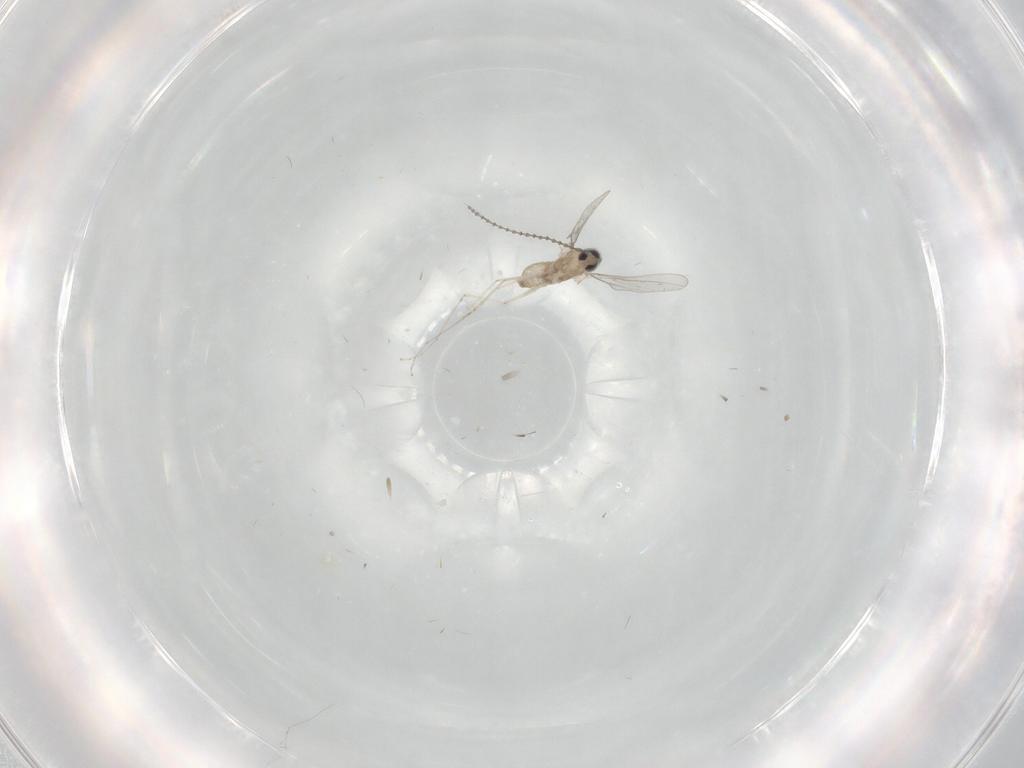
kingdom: Animalia
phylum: Arthropoda
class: Insecta
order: Diptera
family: Cecidomyiidae
